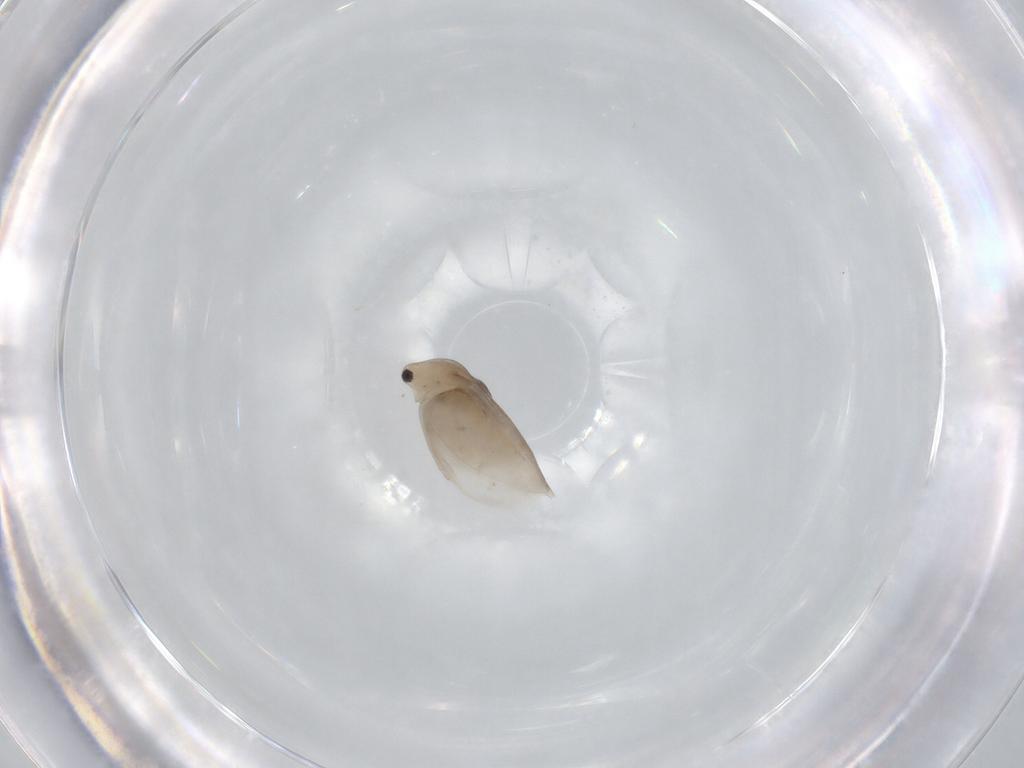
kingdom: Animalia
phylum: Arthropoda
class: Branchiopoda
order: Diplostraca
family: Daphniidae
